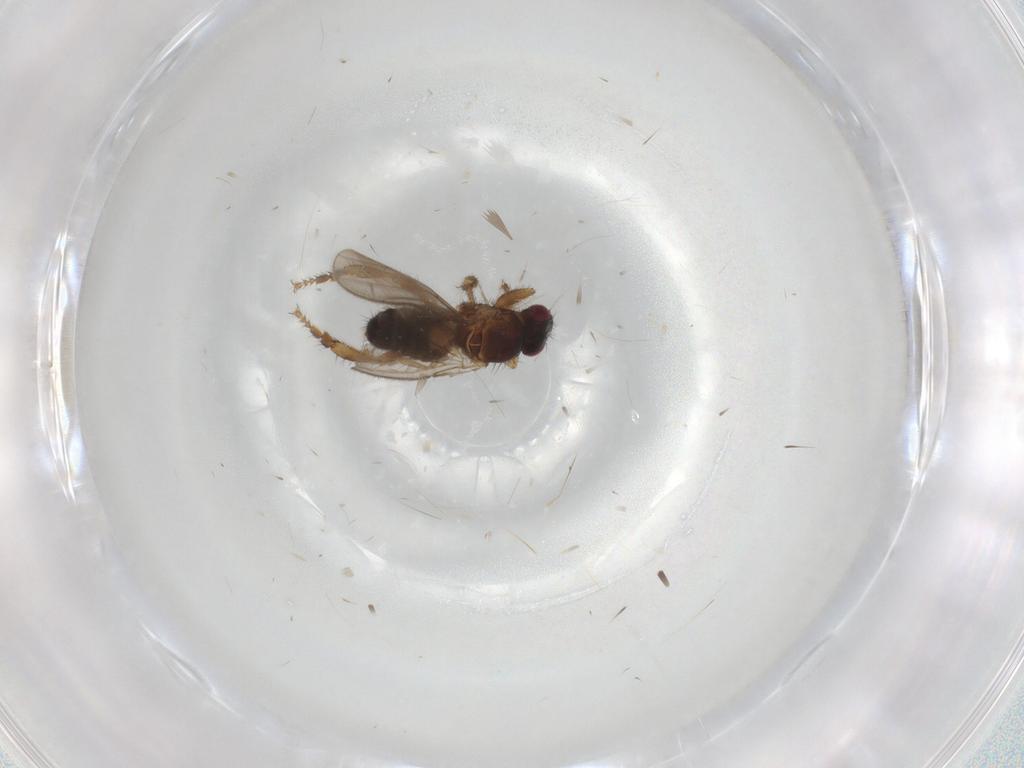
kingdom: Animalia
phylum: Arthropoda
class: Insecta
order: Diptera
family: Sphaeroceridae
